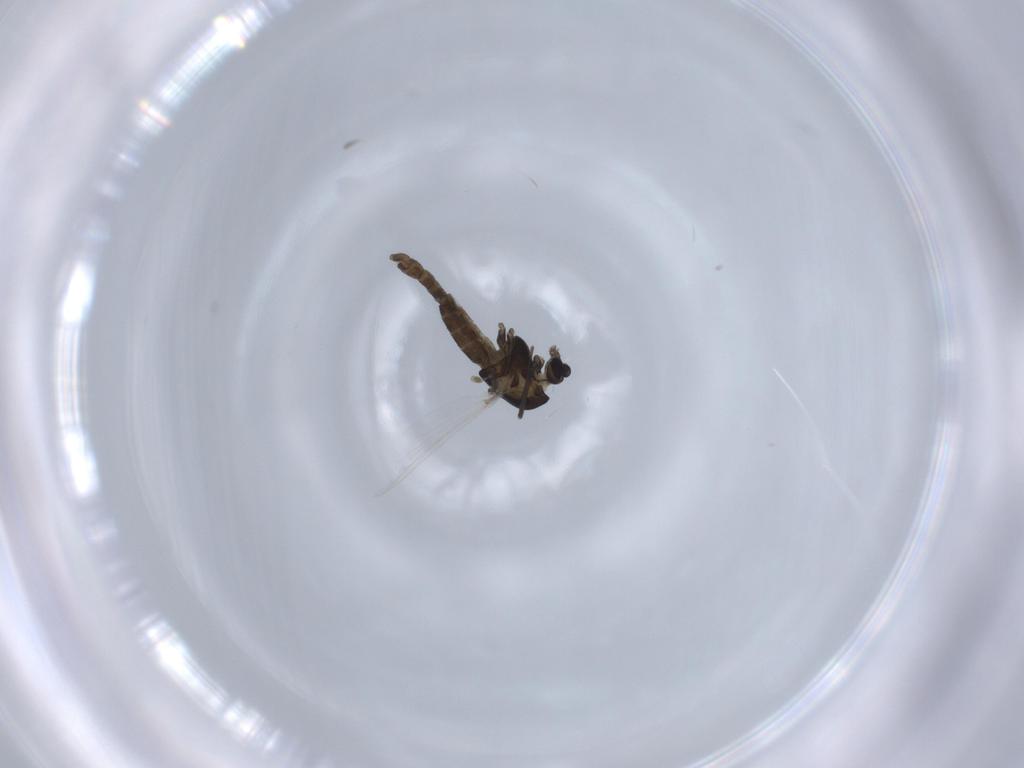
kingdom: Animalia
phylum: Arthropoda
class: Insecta
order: Diptera
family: Chironomidae
